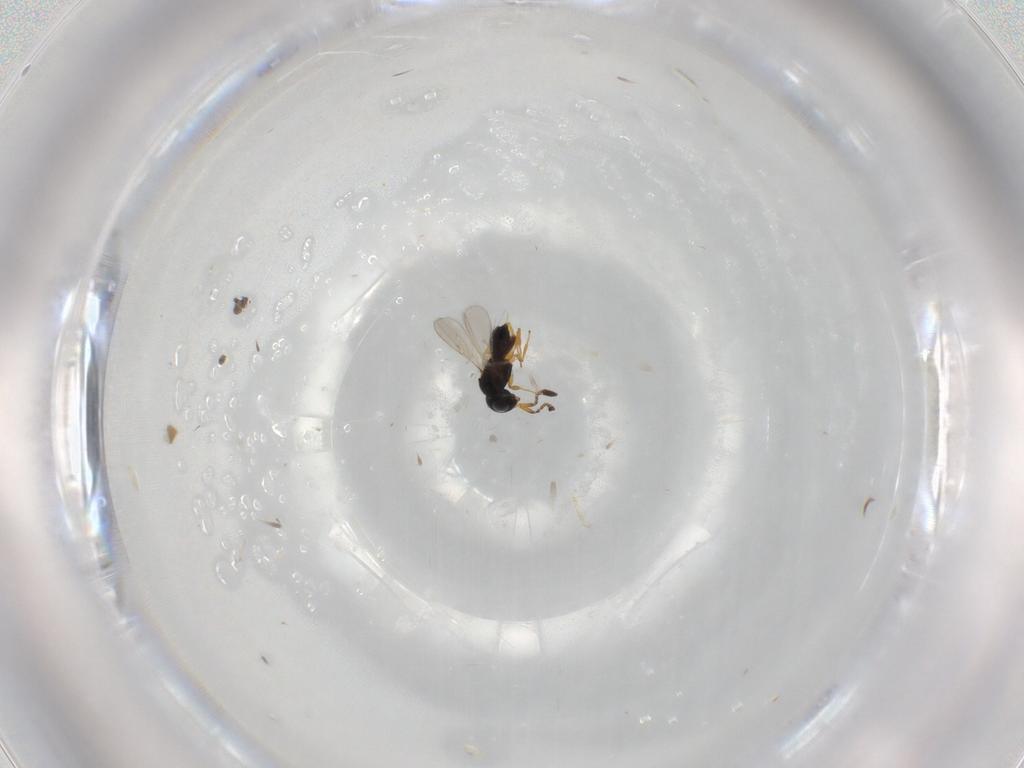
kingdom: Animalia
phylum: Arthropoda
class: Insecta
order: Hymenoptera
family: Scelionidae
